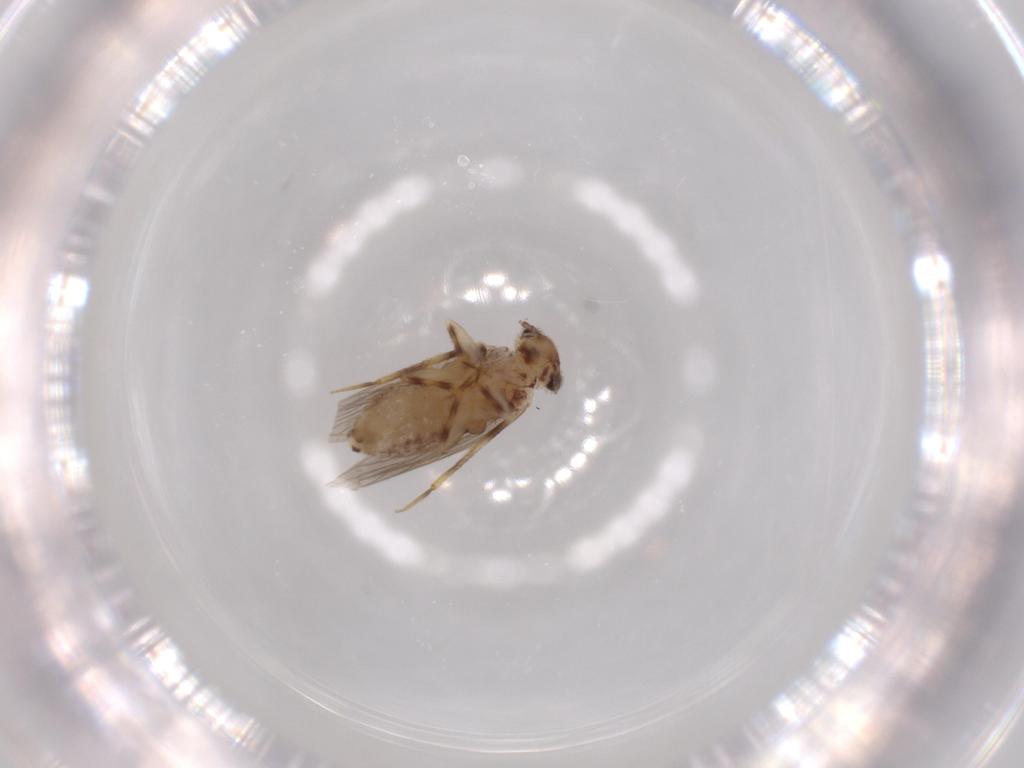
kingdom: Animalia
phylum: Arthropoda
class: Insecta
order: Psocodea
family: Lepidopsocidae
